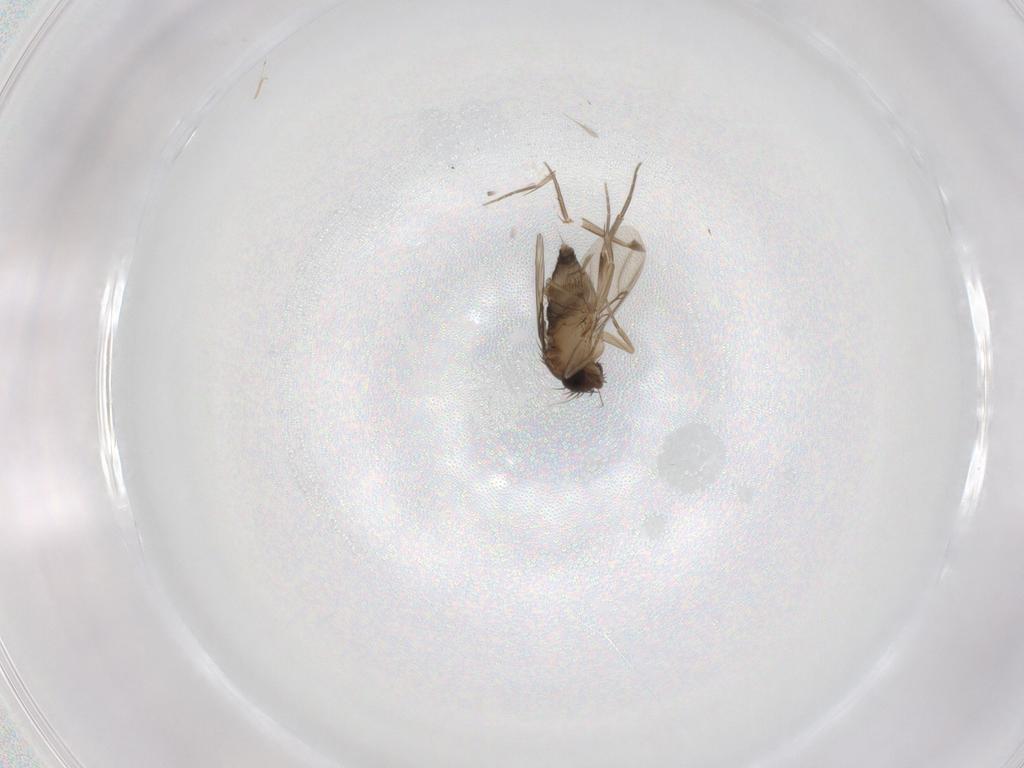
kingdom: Animalia
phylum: Arthropoda
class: Insecta
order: Diptera
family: Phoridae
